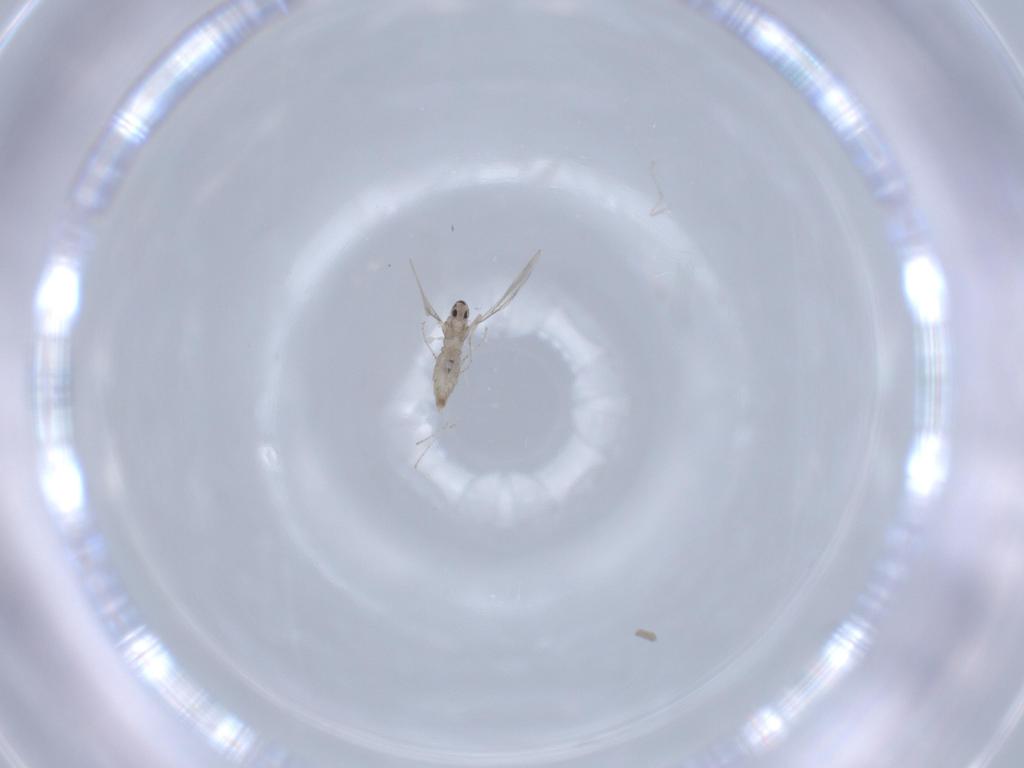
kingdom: Animalia
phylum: Arthropoda
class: Insecta
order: Diptera
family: Cecidomyiidae
